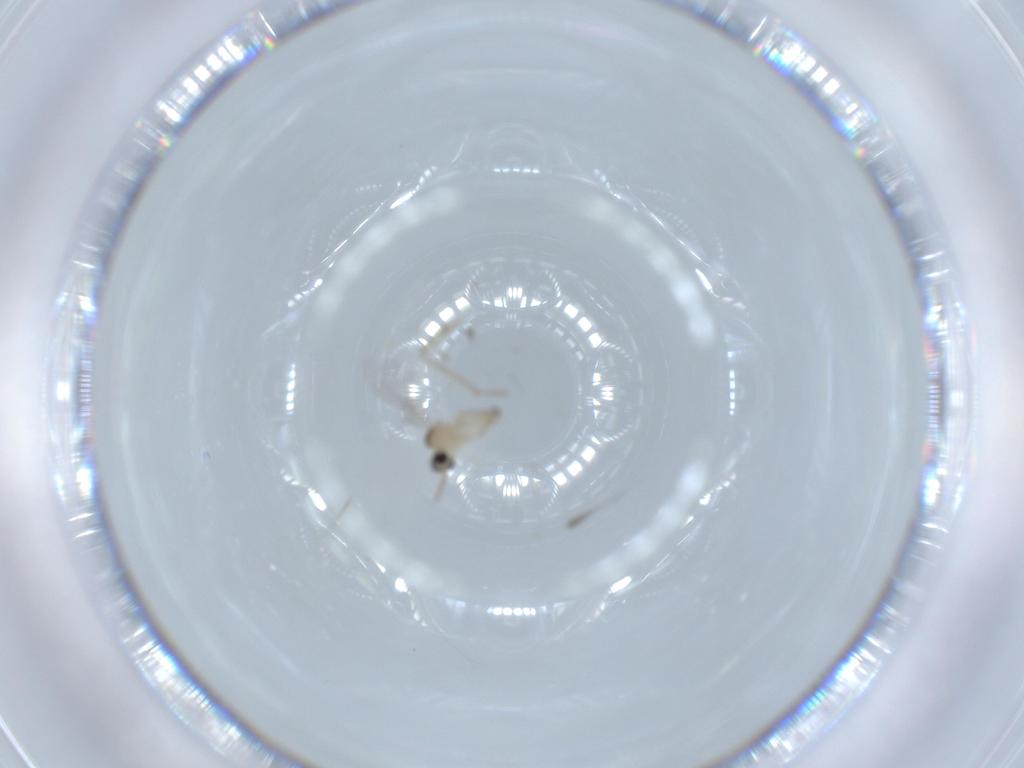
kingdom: Animalia
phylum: Arthropoda
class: Insecta
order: Diptera
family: Cecidomyiidae
